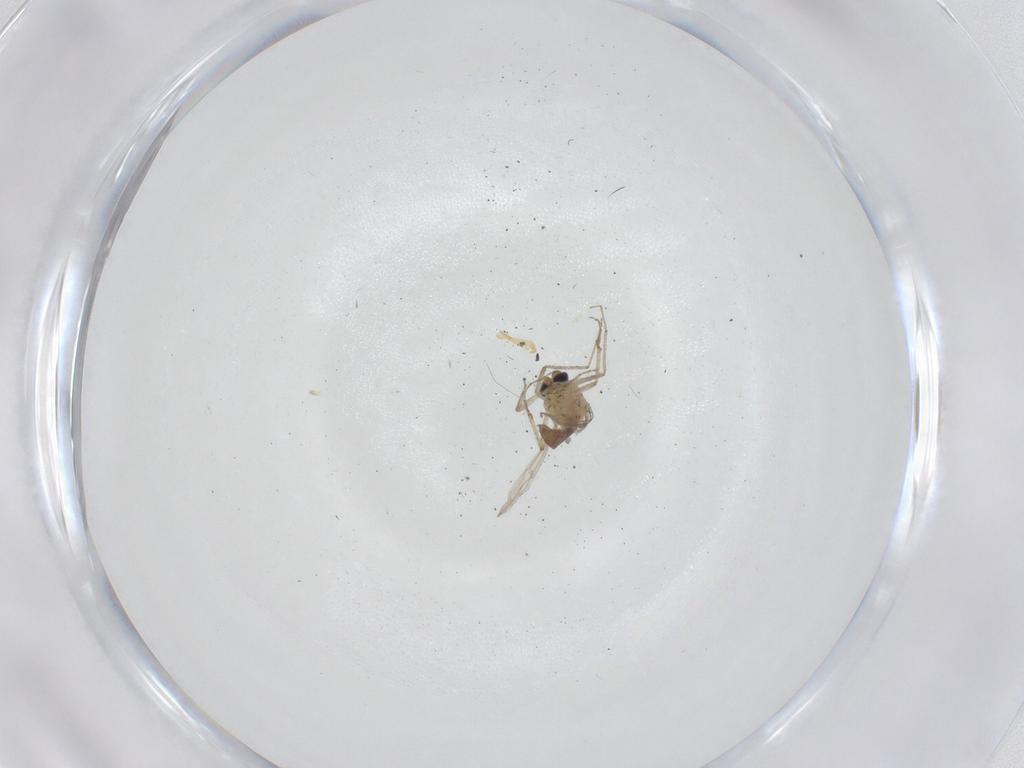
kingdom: Animalia
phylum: Arthropoda
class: Insecta
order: Diptera
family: Ceratopogonidae
